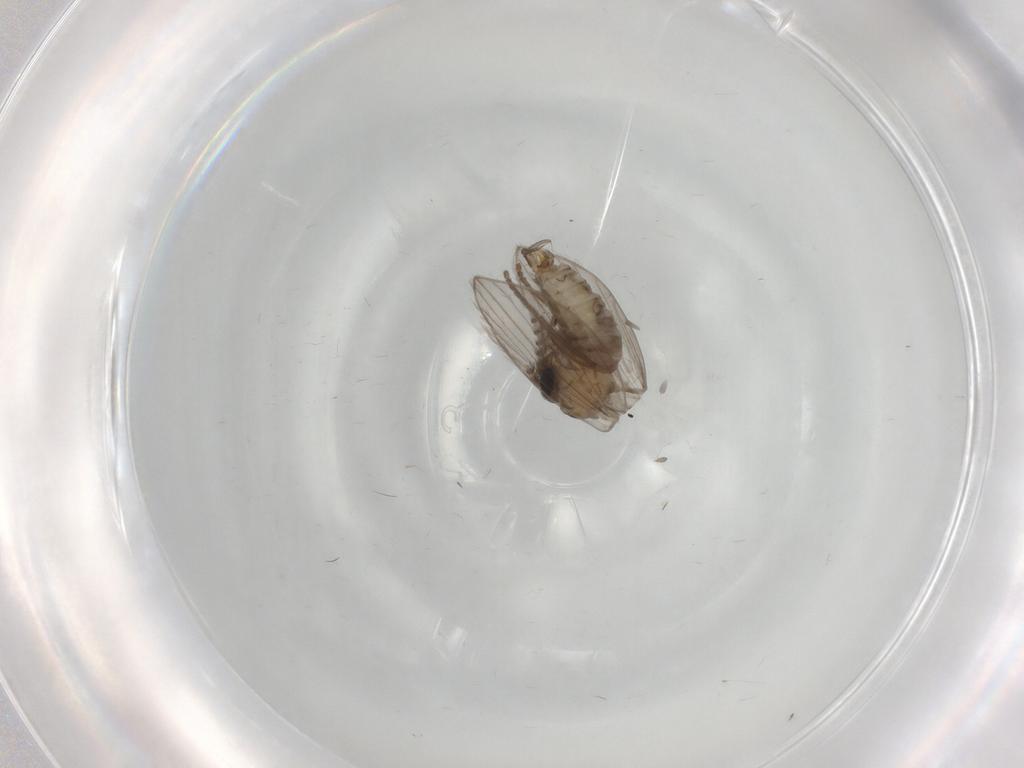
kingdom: Animalia
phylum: Arthropoda
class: Insecta
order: Diptera
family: Psychodidae
